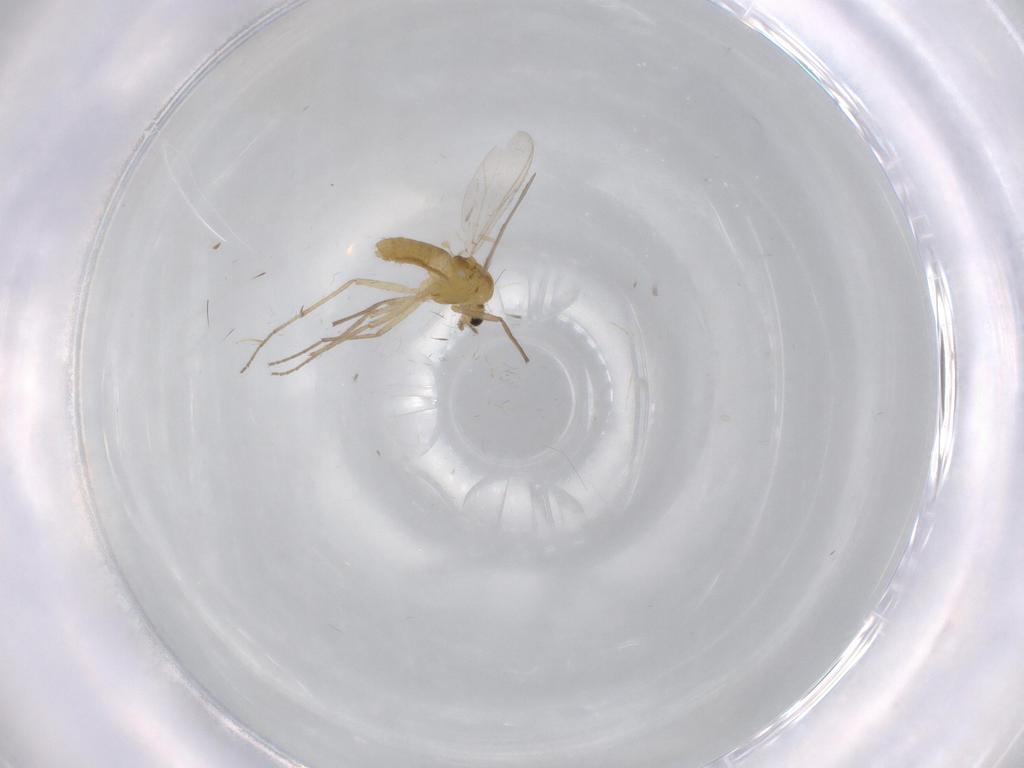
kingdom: Animalia
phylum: Arthropoda
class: Insecta
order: Diptera
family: Chironomidae
